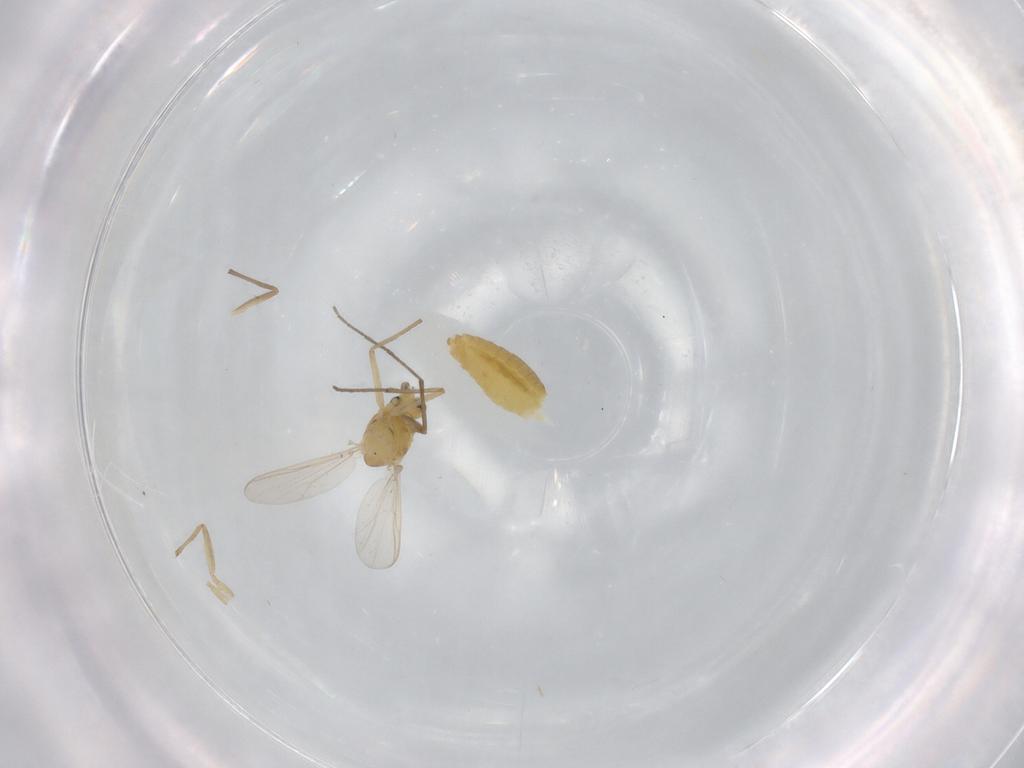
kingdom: Animalia
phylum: Arthropoda
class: Insecta
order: Diptera
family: Chironomidae
